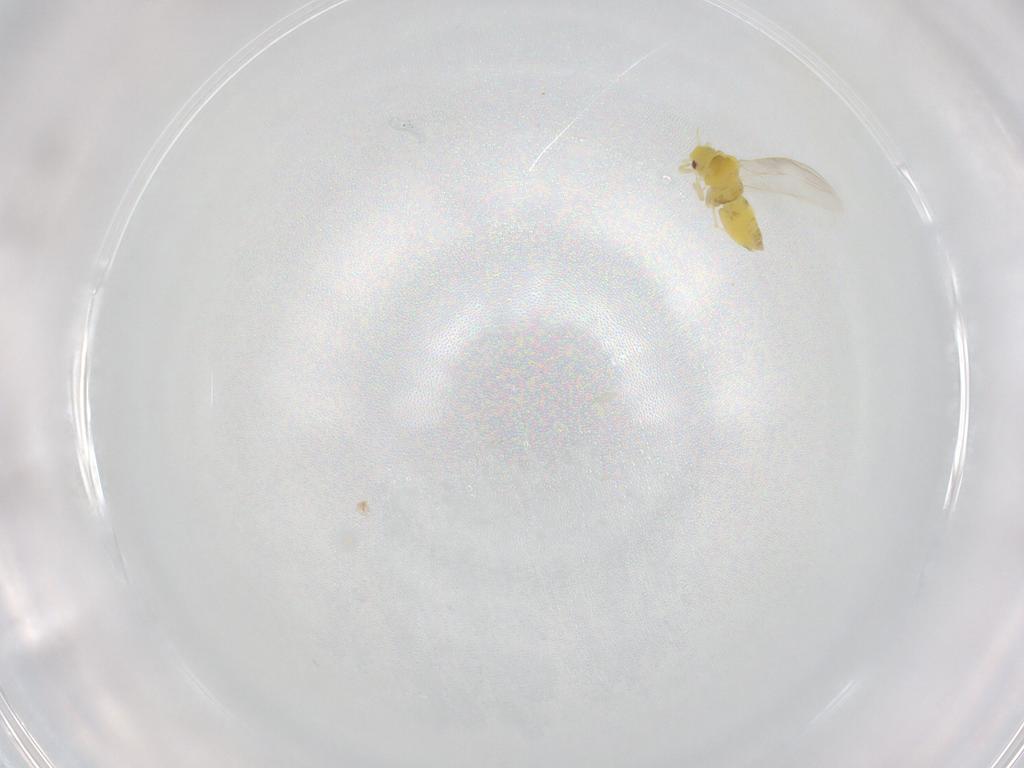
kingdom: Animalia
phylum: Arthropoda
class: Insecta
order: Hemiptera
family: Aleyrodidae
